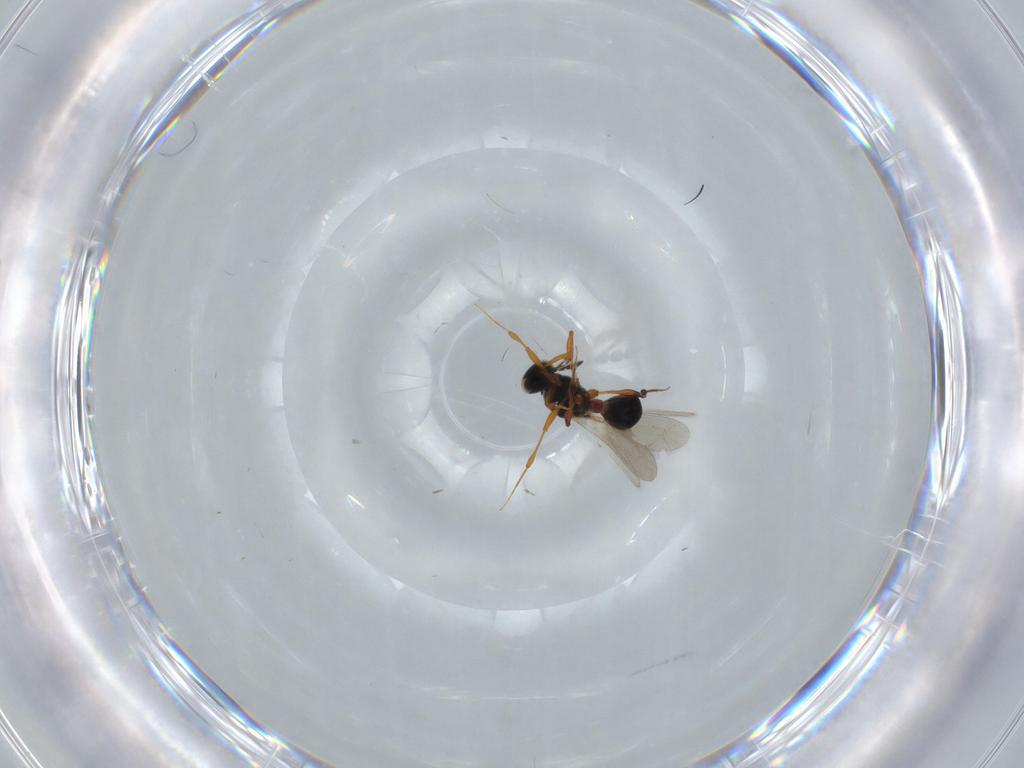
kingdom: Animalia
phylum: Arthropoda
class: Insecta
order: Hymenoptera
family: Platygastridae
